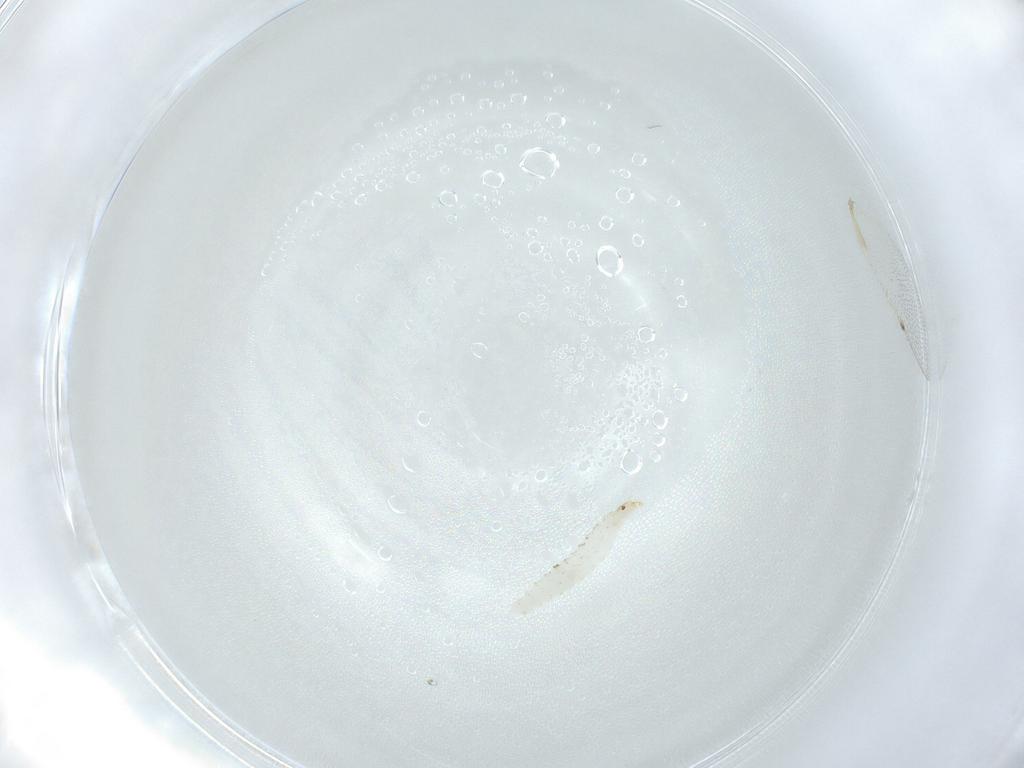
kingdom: Animalia
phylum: Arthropoda
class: Insecta
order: Diptera
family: Stratiomyidae
